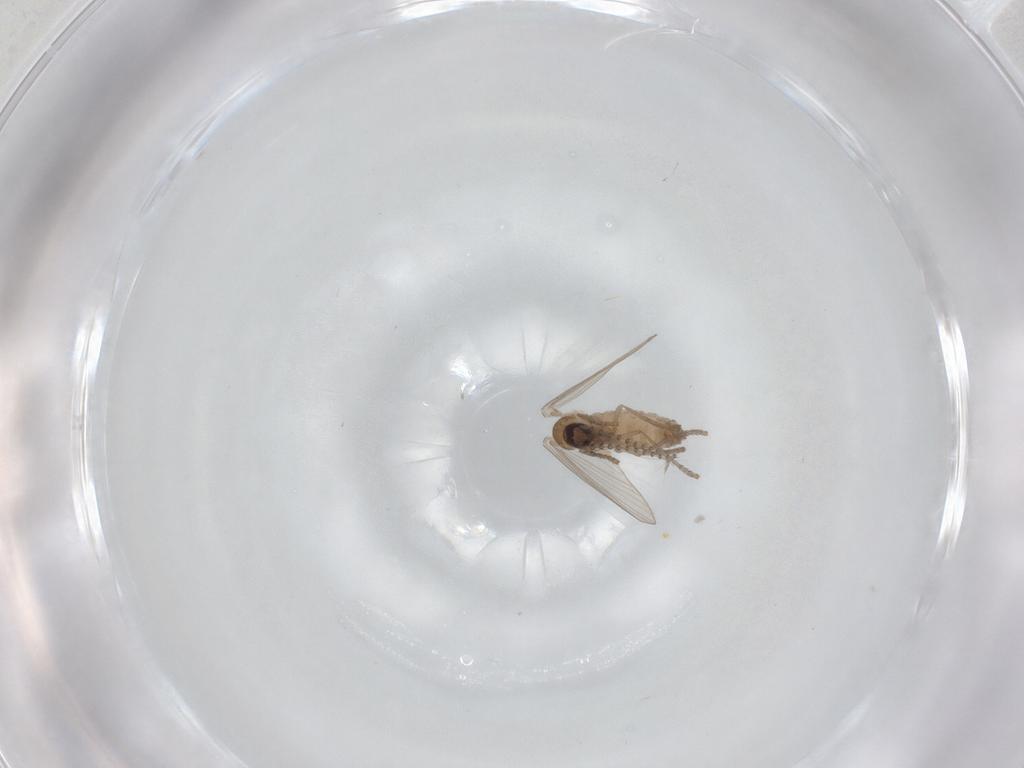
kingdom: Animalia
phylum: Arthropoda
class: Insecta
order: Diptera
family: Psychodidae
